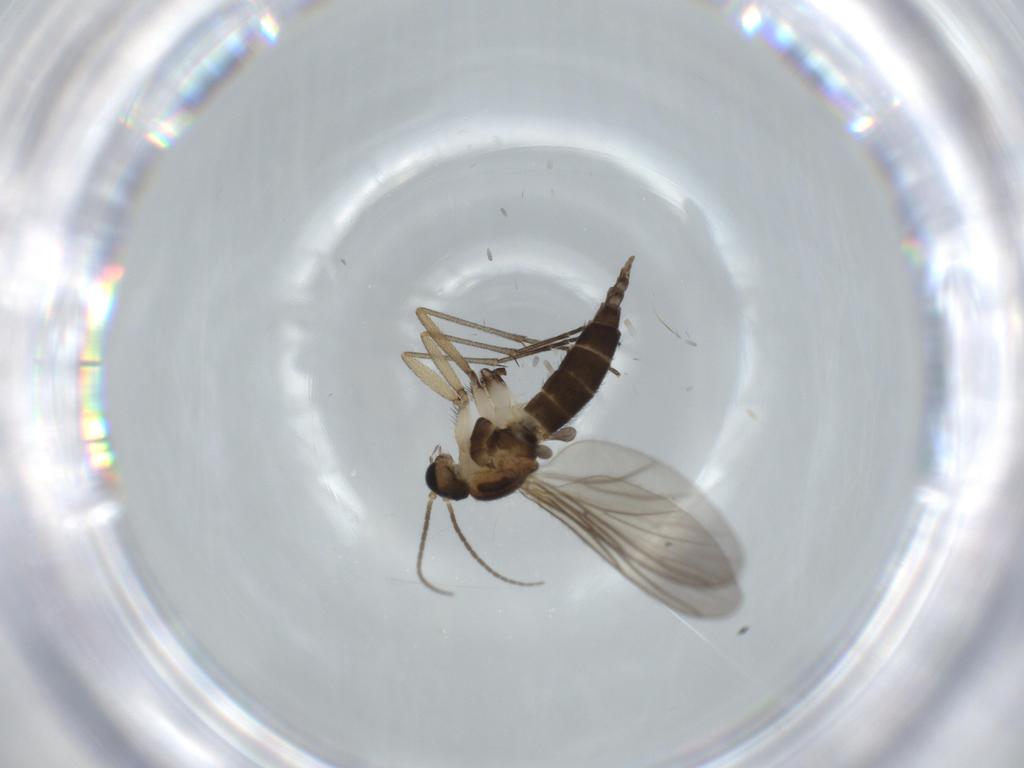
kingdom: Animalia
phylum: Arthropoda
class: Insecta
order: Diptera
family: Sciaridae
